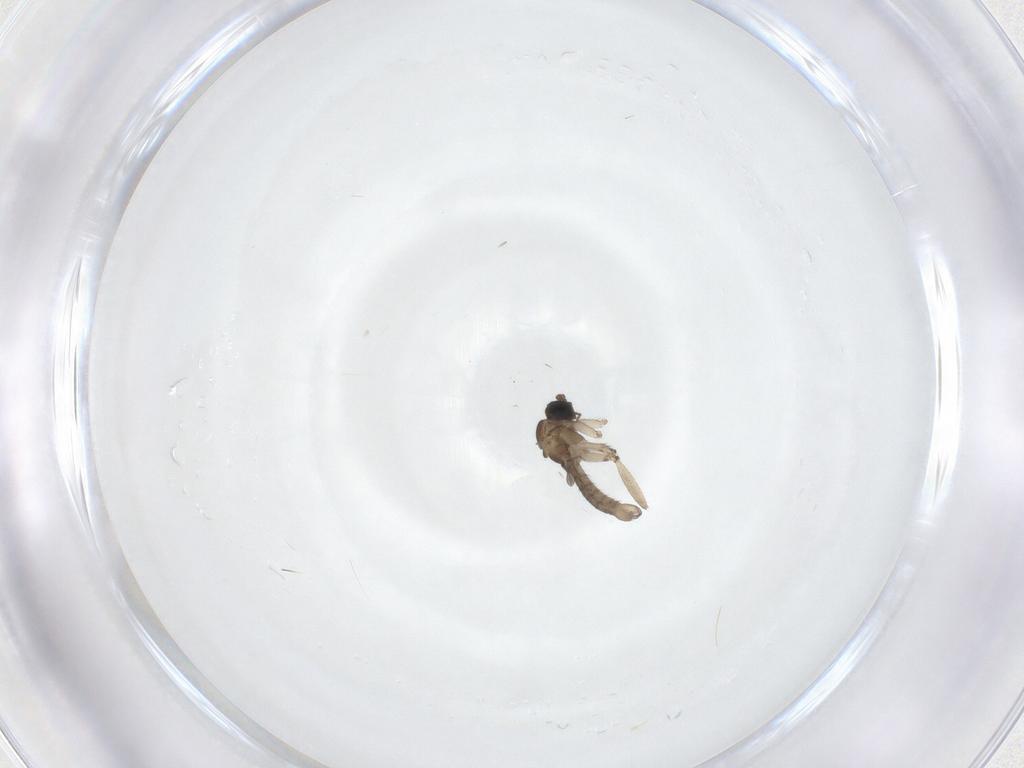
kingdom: Animalia
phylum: Arthropoda
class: Insecta
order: Diptera
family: Sciaridae
